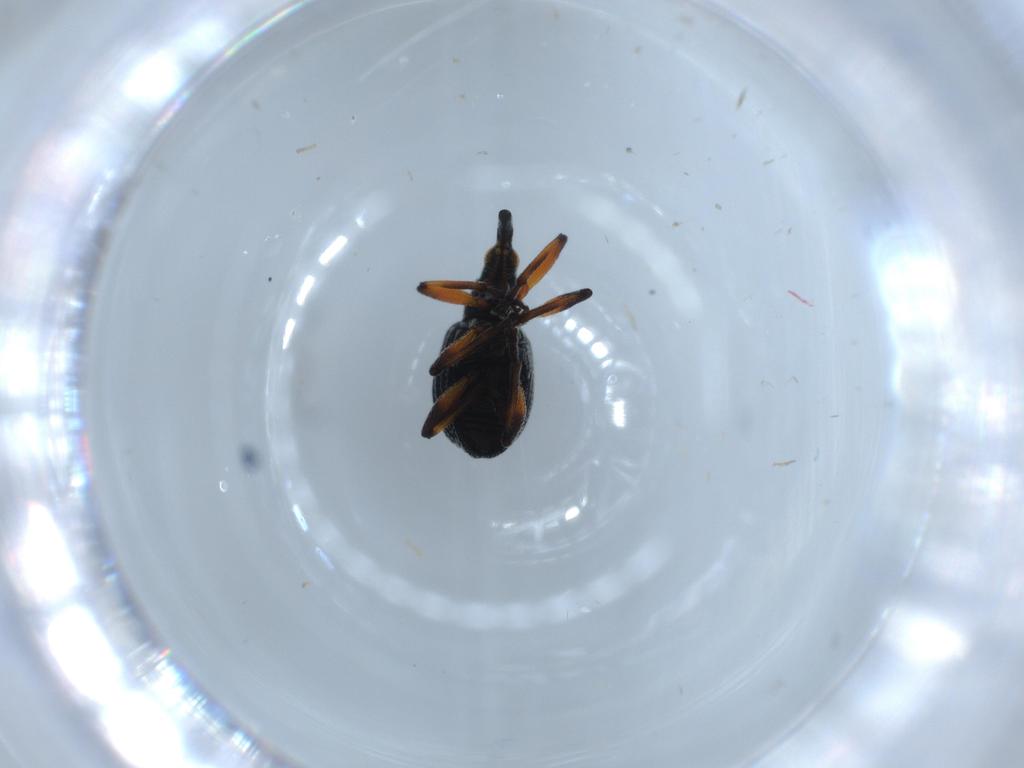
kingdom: Animalia
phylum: Arthropoda
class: Insecta
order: Coleoptera
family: Brentidae
